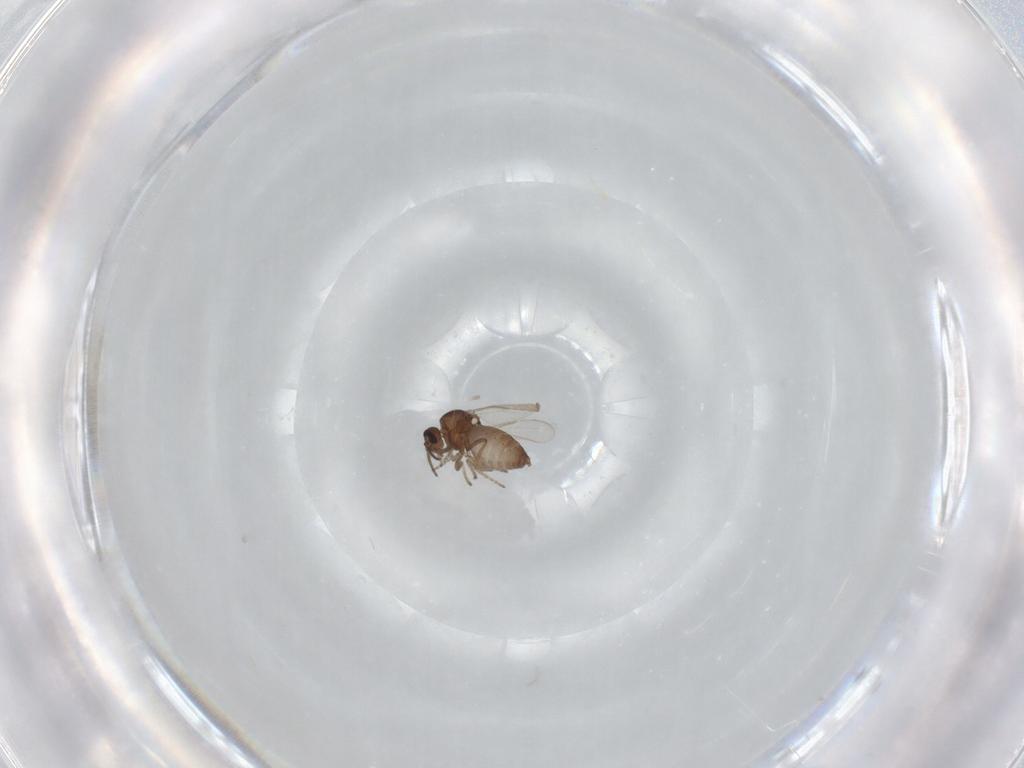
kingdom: Animalia
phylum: Arthropoda
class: Insecta
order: Diptera
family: Ceratopogonidae
